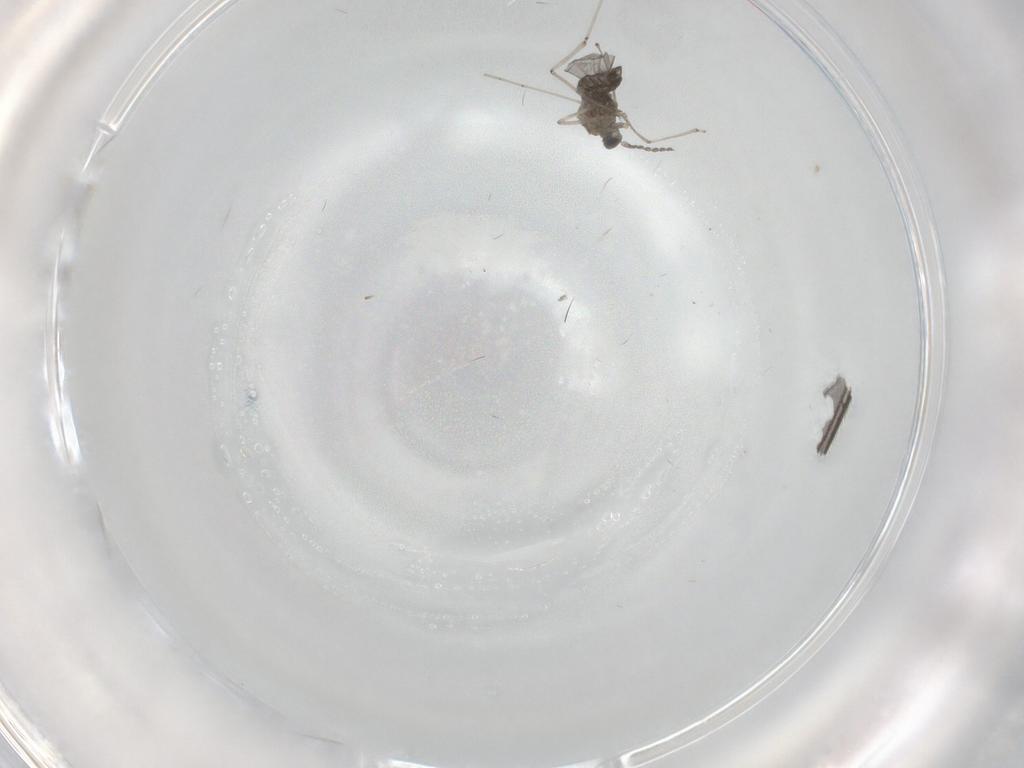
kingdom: Animalia
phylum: Arthropoda
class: Insecta
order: Diptera
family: Cecidomyiidae
